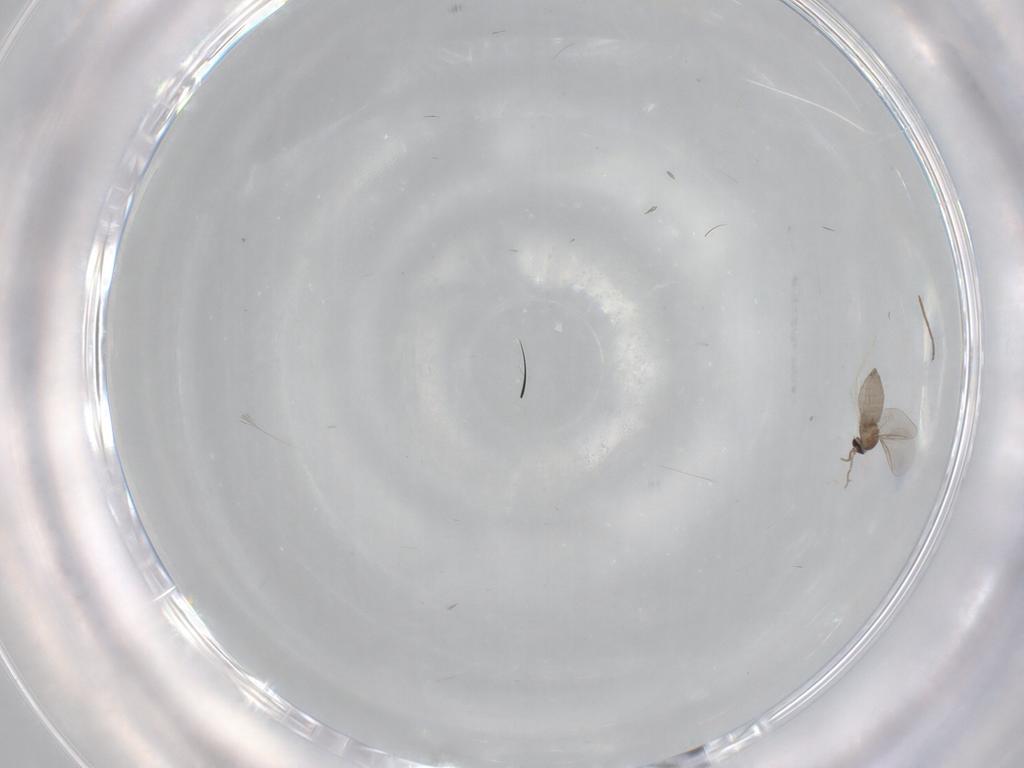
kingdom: Animalia
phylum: Arthropoda
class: Insecta
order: Diptera
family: Cecidomyiidae
